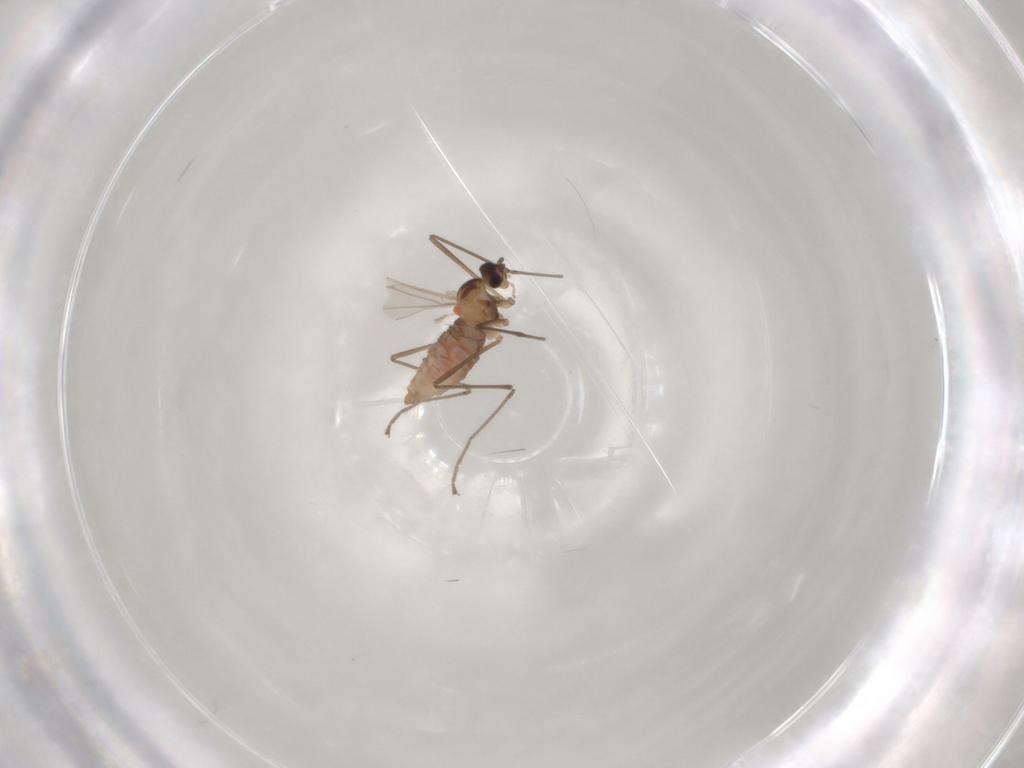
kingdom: Animalia
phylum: Arthropoda
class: Insecta
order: Diptera
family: Cecidomyiidae
